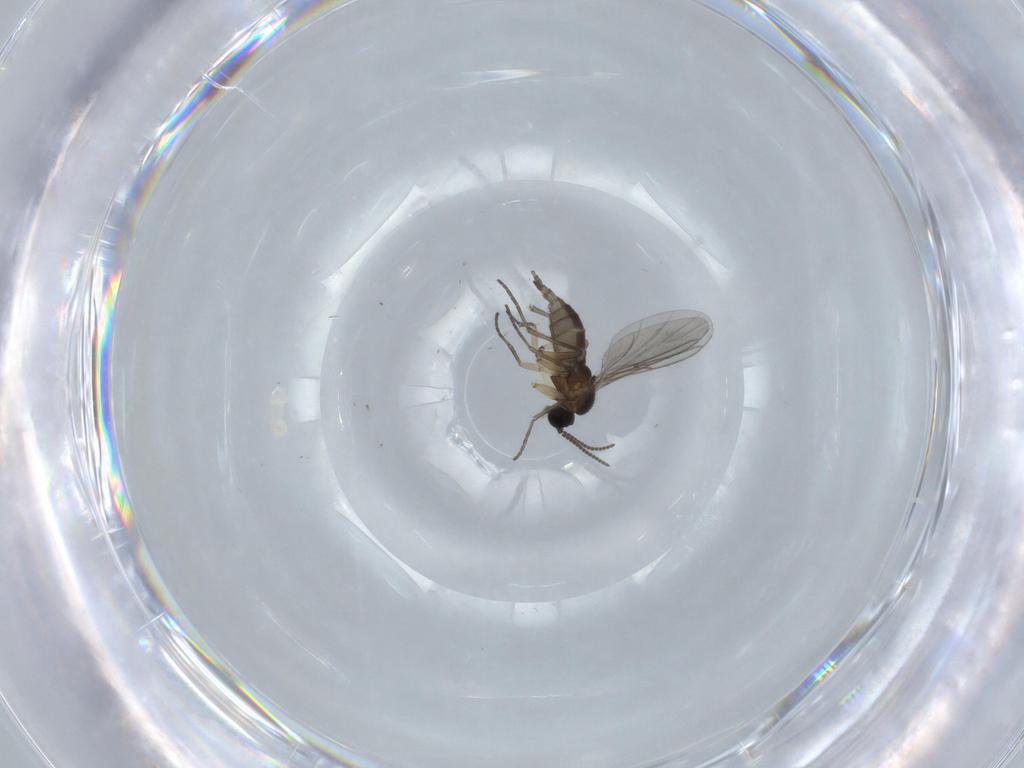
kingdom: Animalia
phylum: Arthropoda
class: Insecta
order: Diptera
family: Sciaridae
